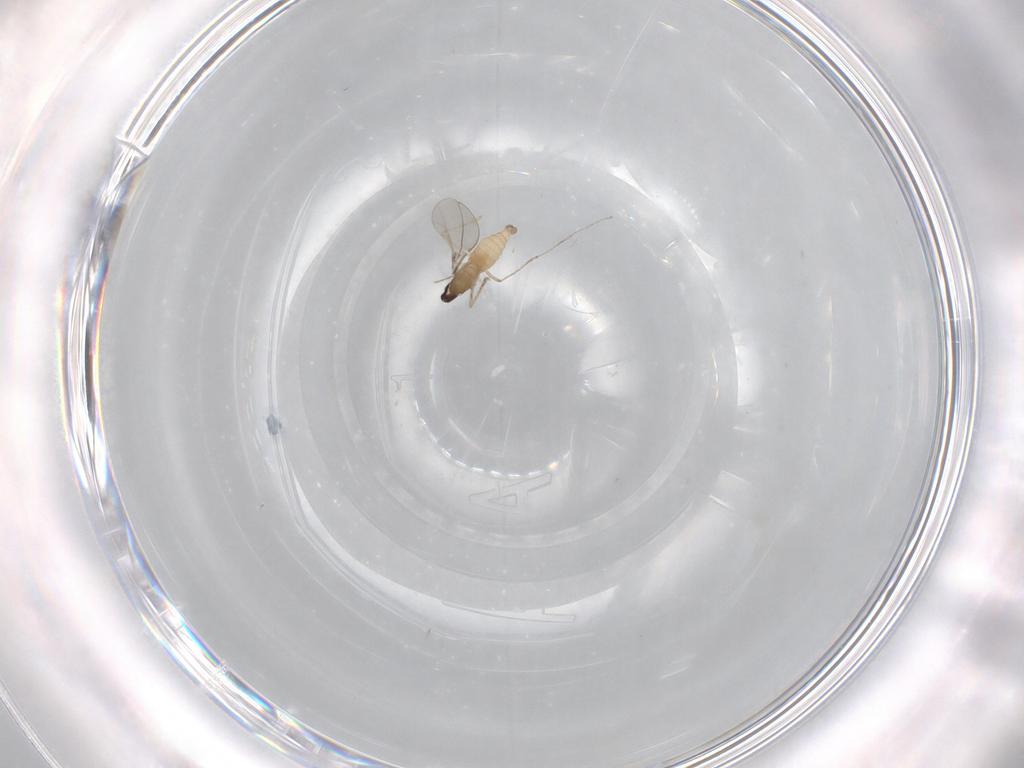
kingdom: Animalia
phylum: Arthropoda
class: Insecta
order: Diptera
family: Cecidomyiidae
